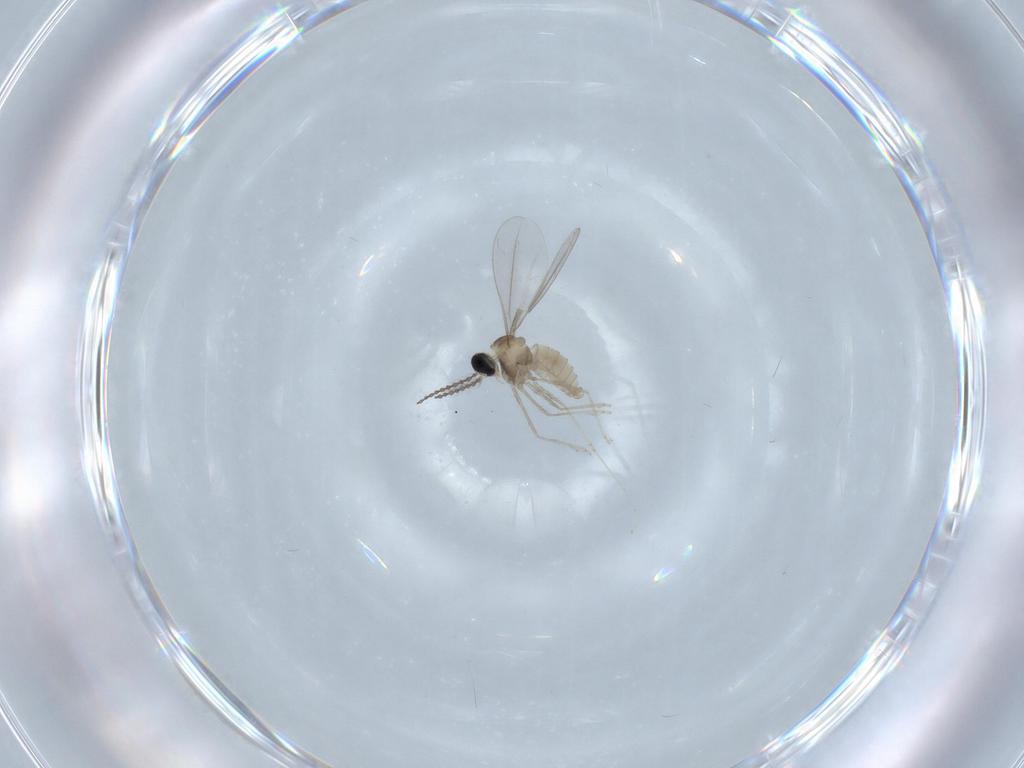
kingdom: Animalia
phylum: Arthropoda
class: Insecta
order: Diptera
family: Cecidomyiidae
